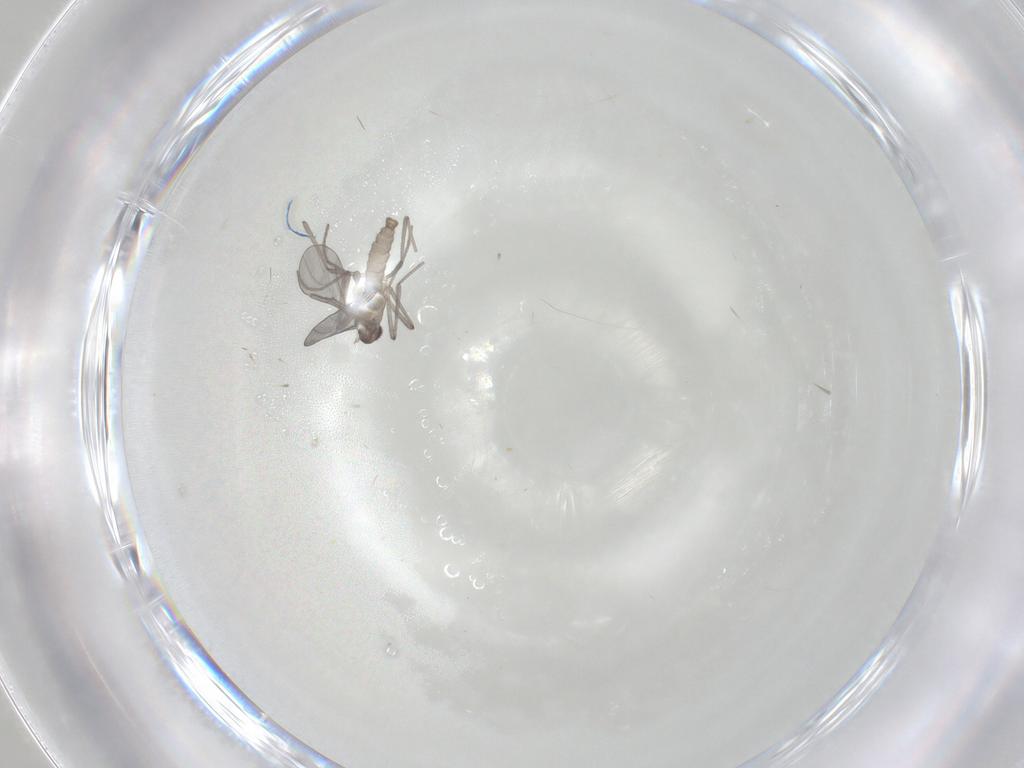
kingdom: Animalia
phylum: Arthropoda
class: Insecta
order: Diptera
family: Cecidomyiidae
